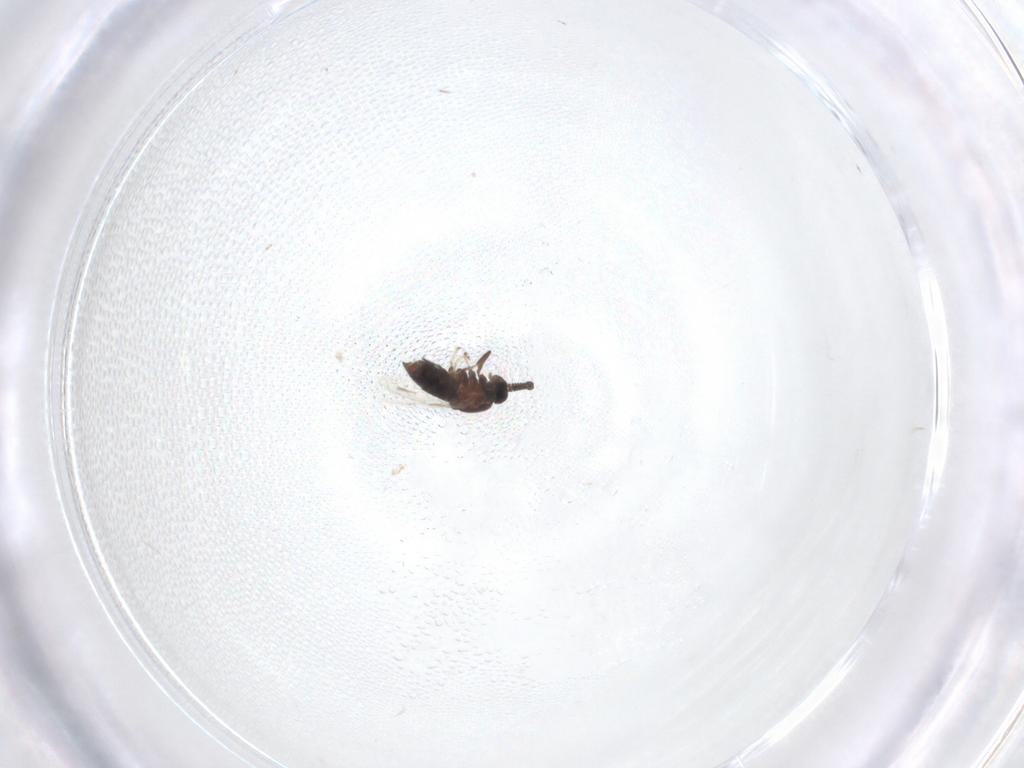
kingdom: Animalia
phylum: Arthropoda
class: Insecta
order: Diptera
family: Scatopsidae
